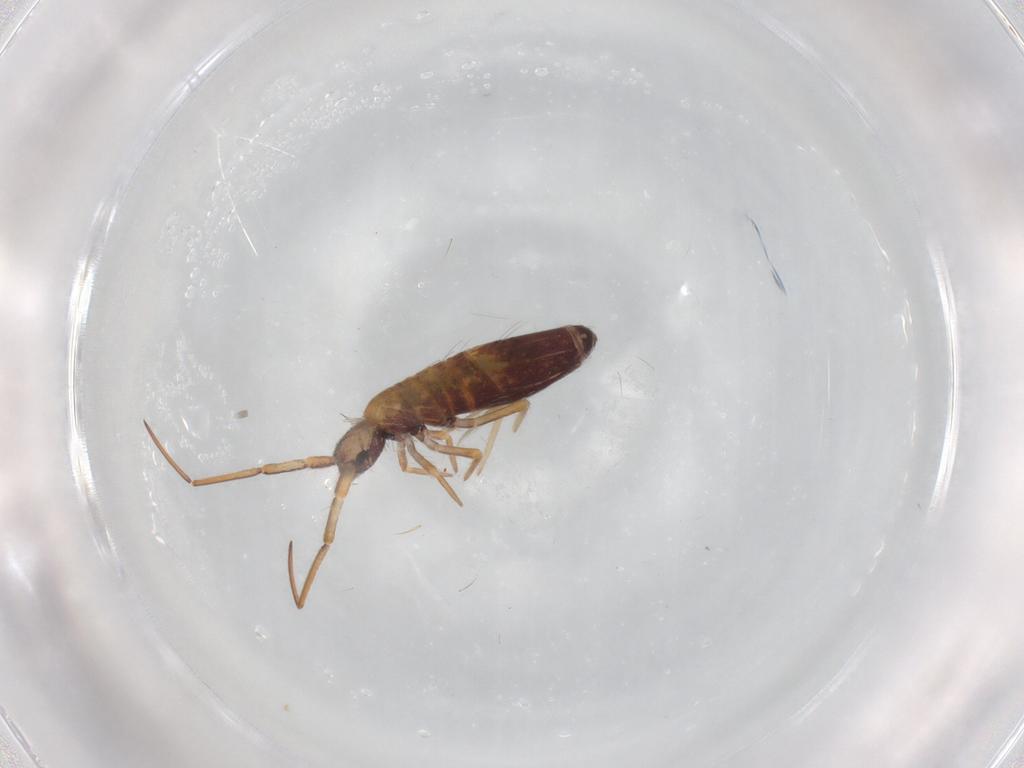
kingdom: Animalia
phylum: Arthropoda
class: Collembola
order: Entomobryomorpha
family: Entomobryidae
